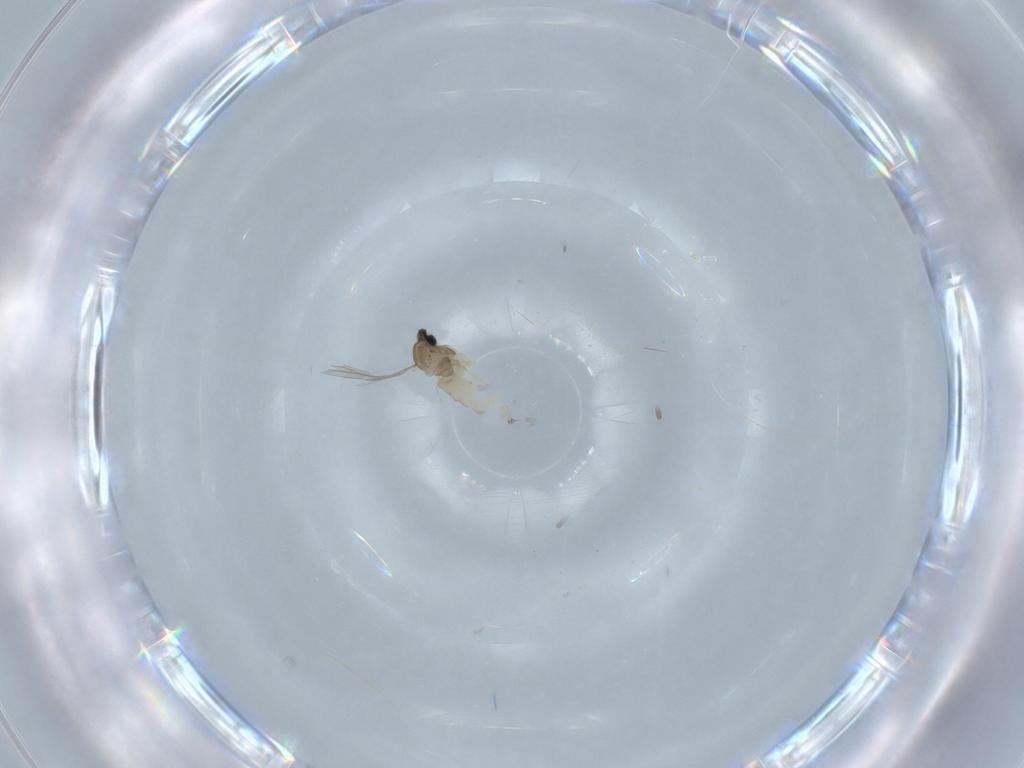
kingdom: Animalia
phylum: Arthropoda
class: Insecta
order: Diptera
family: Cecidomyiidae
